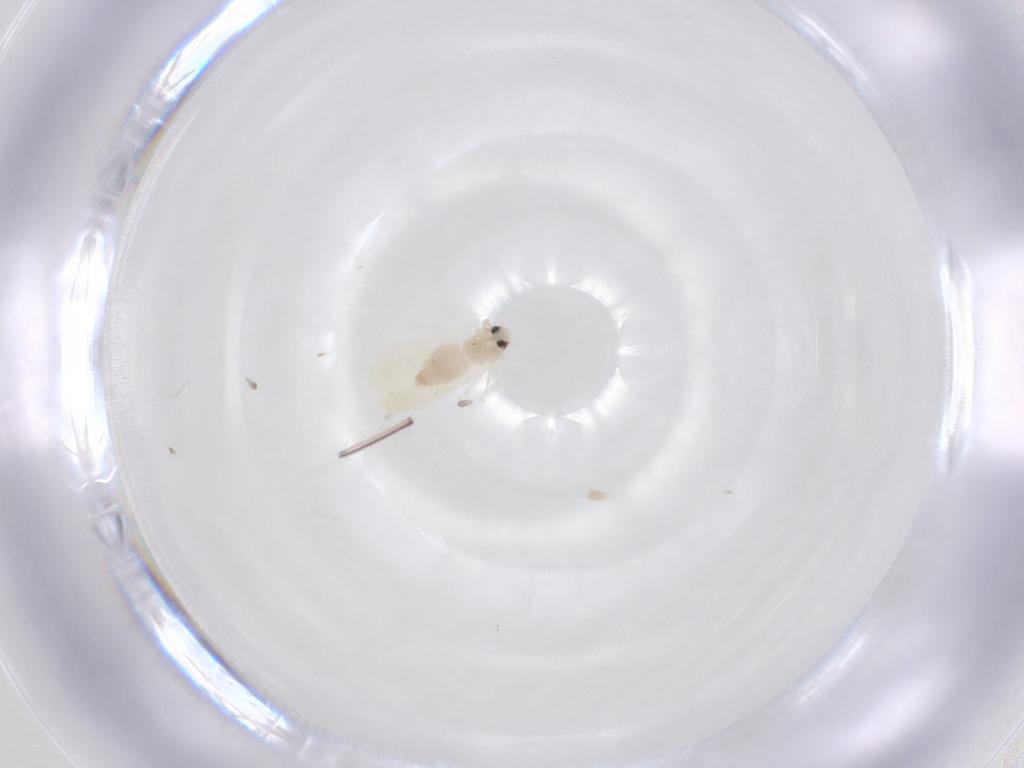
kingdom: Animalia
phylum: Arthropoda
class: Insecta
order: Hemiptera
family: Aleyrodidae
